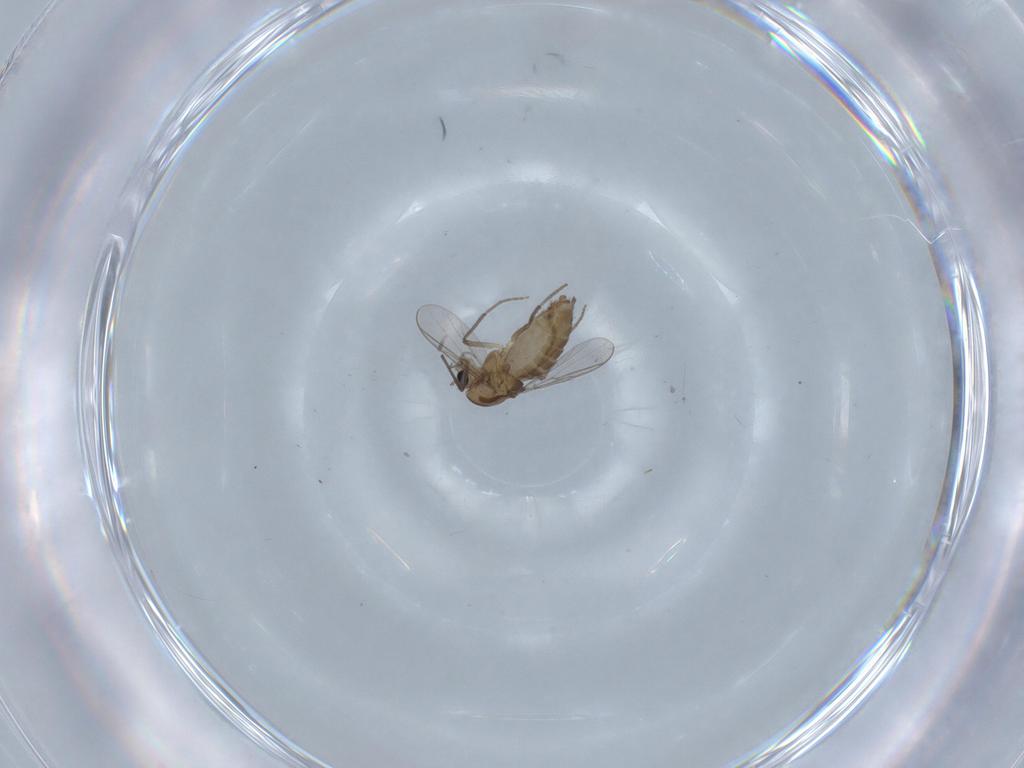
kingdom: Animalia
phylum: Arthropoda
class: Insecta
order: Diptera
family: Chironomidae
